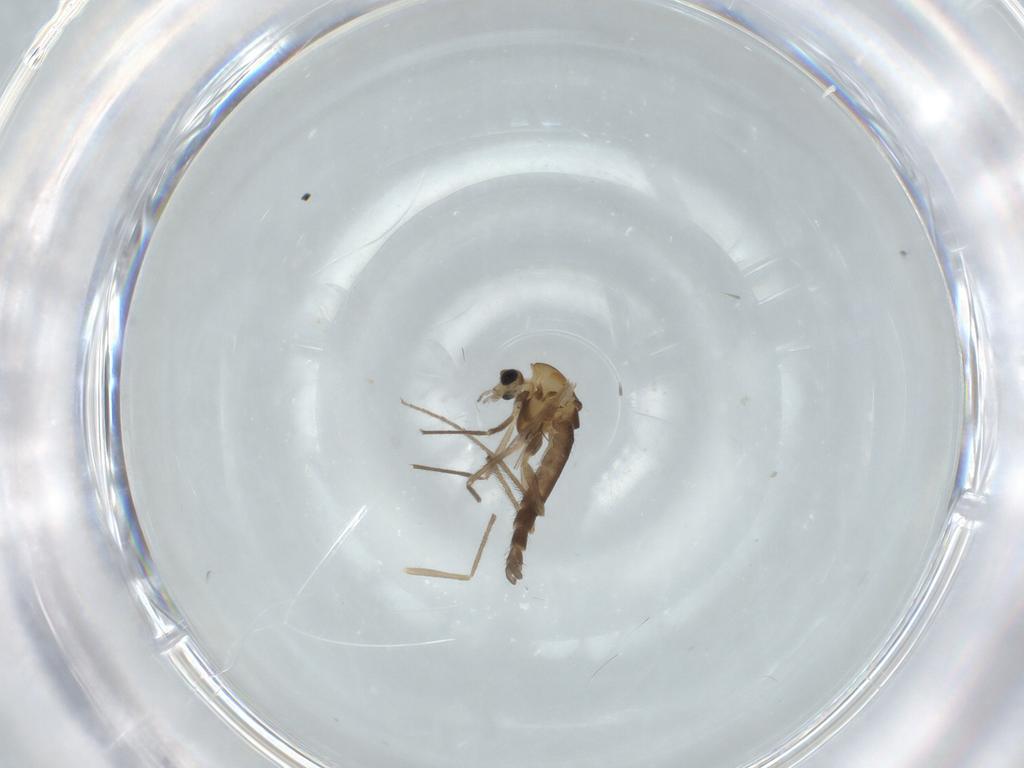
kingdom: Animalia
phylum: Arthropoda
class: Insecta
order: Diptera
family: Chironomidae
